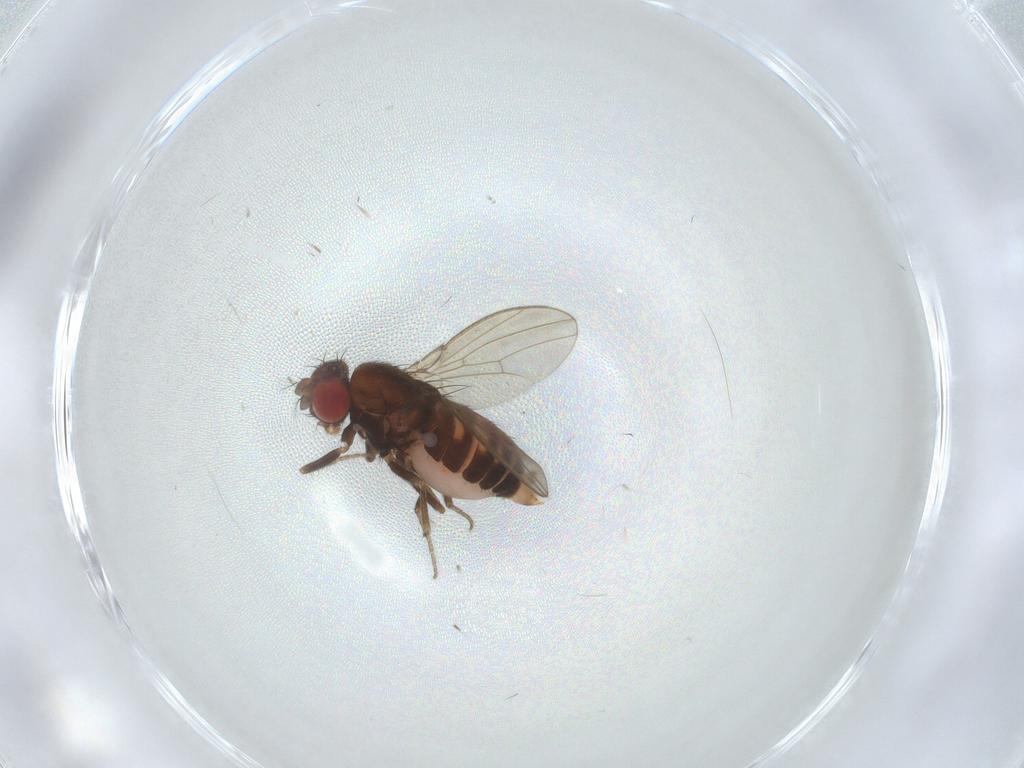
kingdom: Animalia
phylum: Arthropoda
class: Insecta
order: Diptera
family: Drosophilidae
